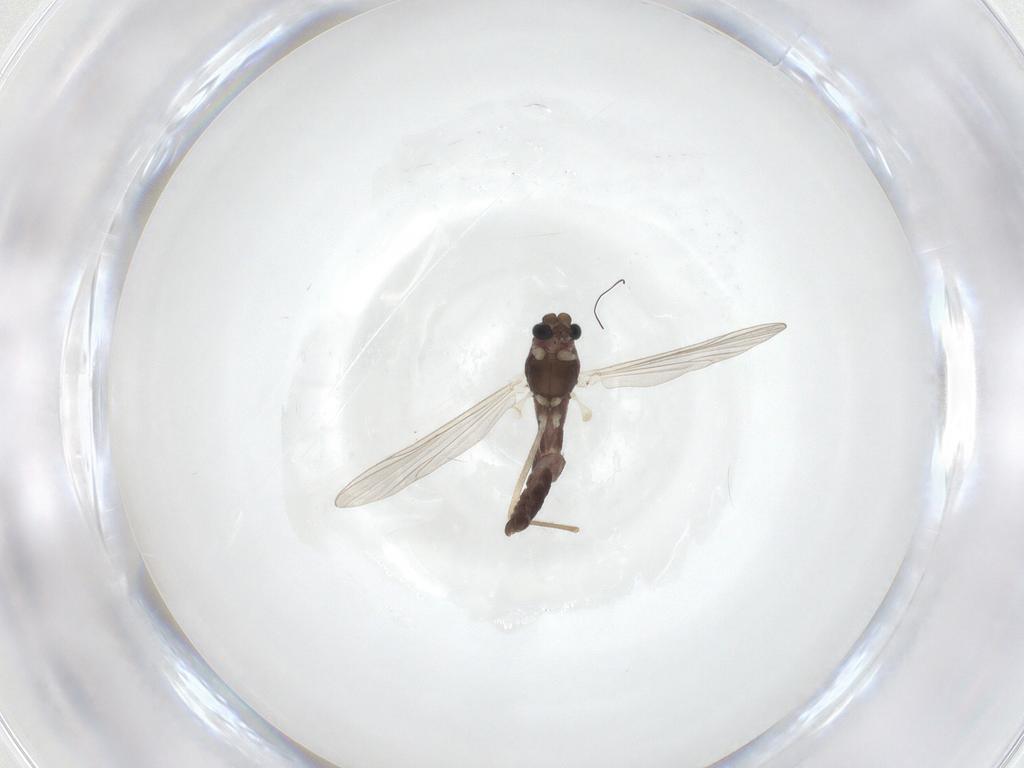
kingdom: Animalia
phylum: Arthropoda
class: Insecta
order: Diptera
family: Chironomidae
